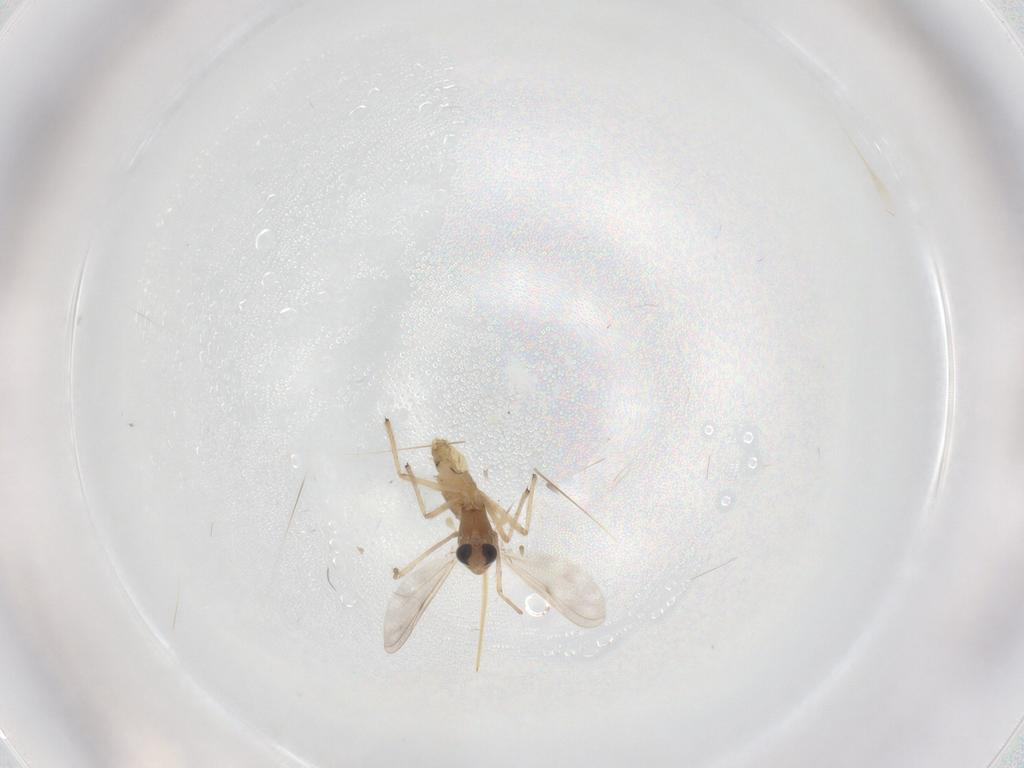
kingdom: Animalia
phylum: Arthropoda
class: Insecta
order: Diptera
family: Chironomidae
